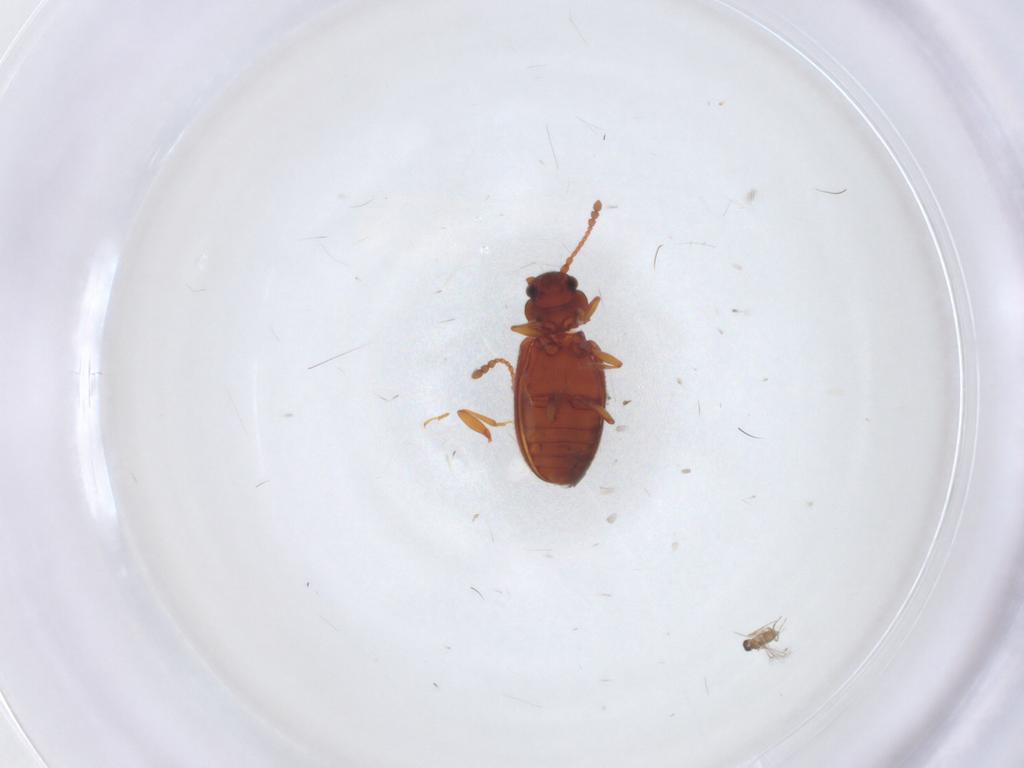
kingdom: Animalia
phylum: Arthropoda
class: Insecta
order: Coleoptera
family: Cryptophagidae
